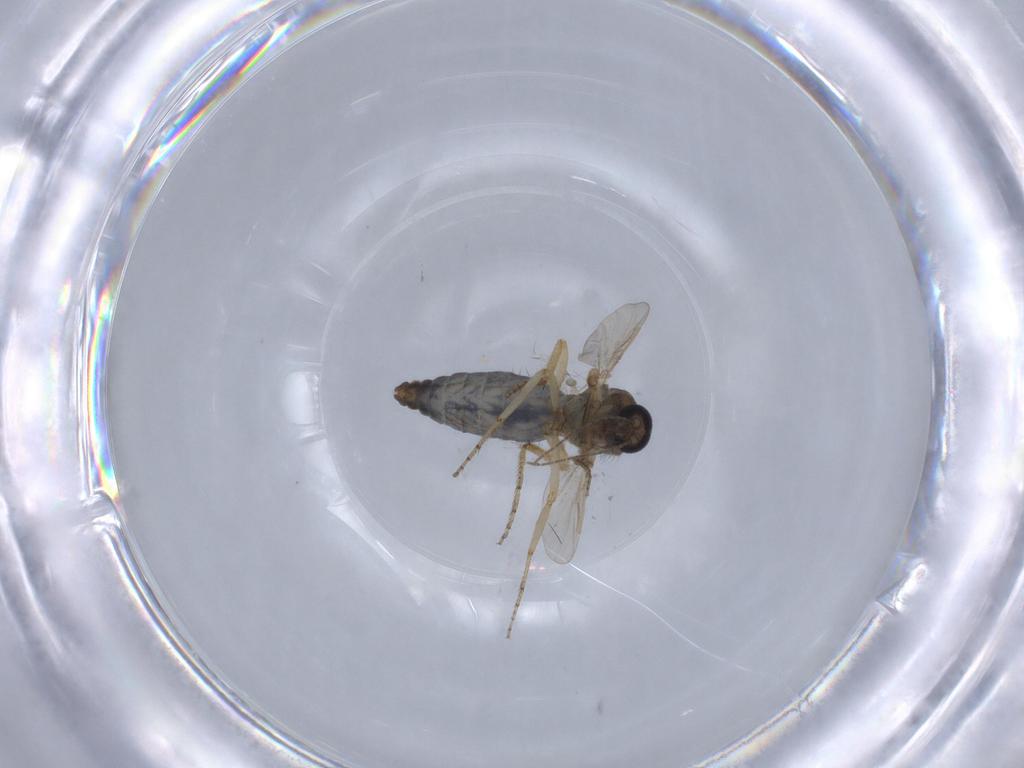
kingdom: Animalia
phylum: Arthropoda
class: Insecta
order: Diptera
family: Ceratopogonidae
